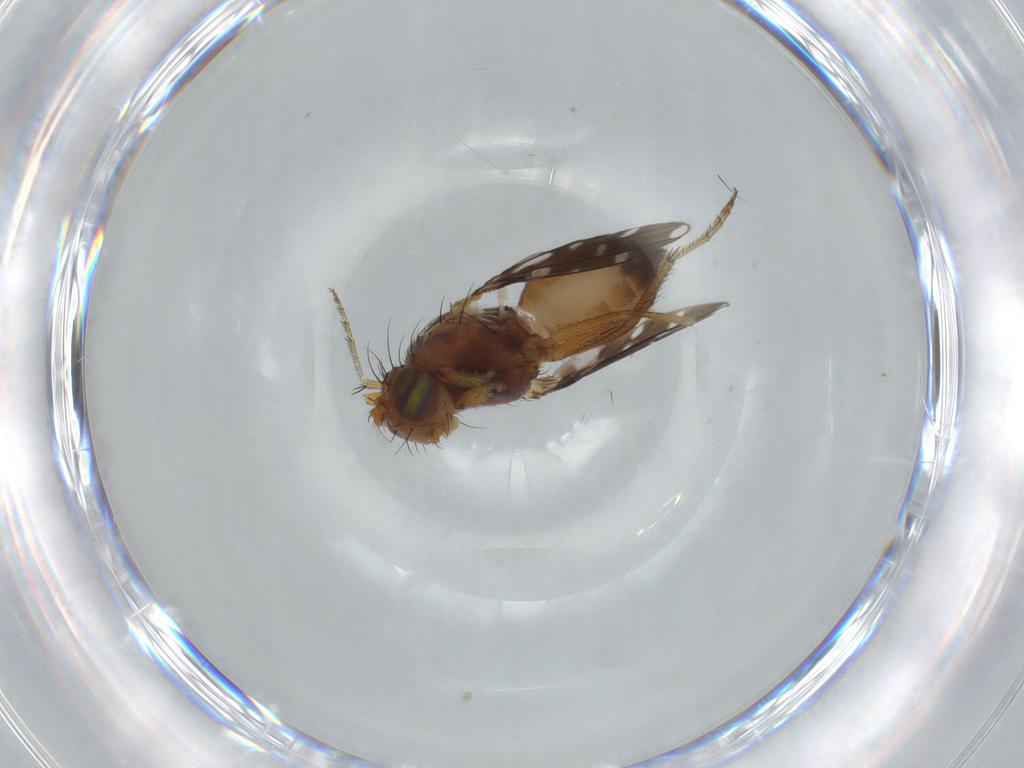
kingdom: Animalia
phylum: Arthropoda
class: Insecta
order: Diptera
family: Ephydridae
